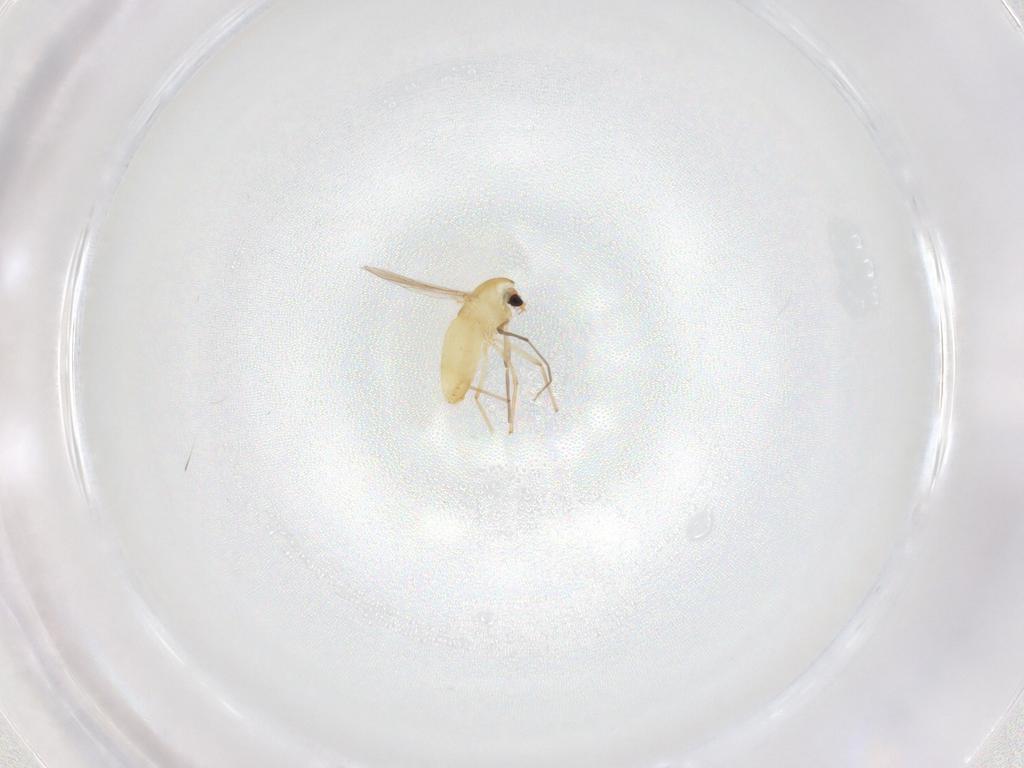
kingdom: Animalia
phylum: Arthropoda
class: Insecta
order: Diptera
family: Chironomidae
